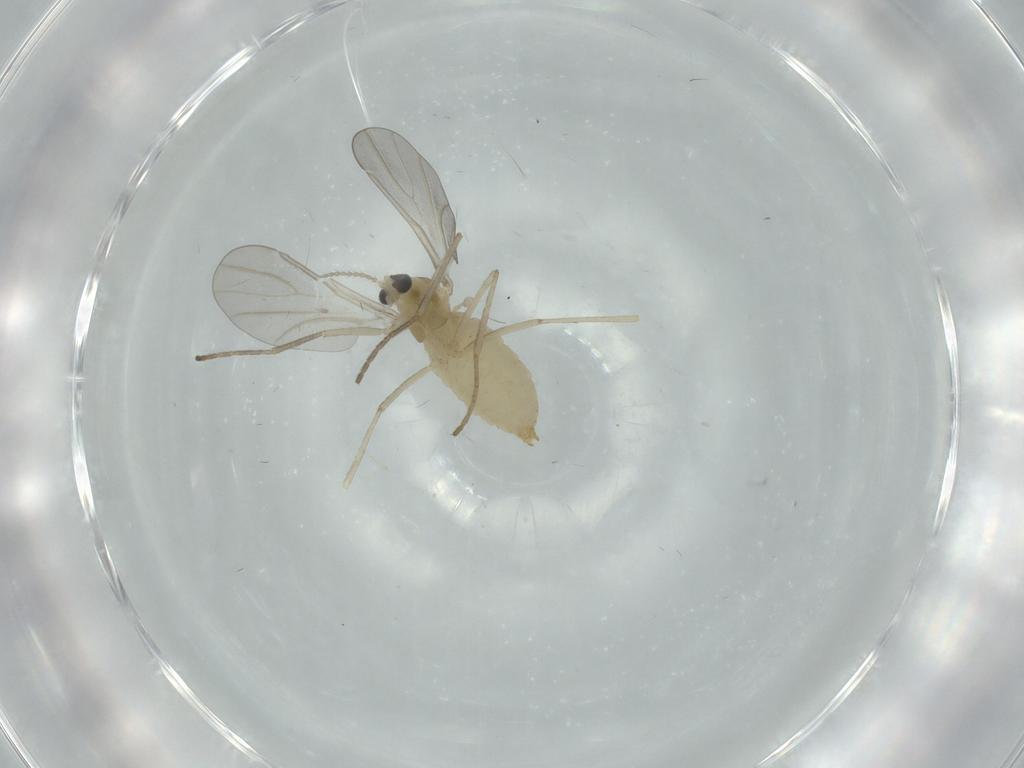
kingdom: Animalia
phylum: Arthropoda
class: Insecta
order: Diptera
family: Cecidomyiidae
